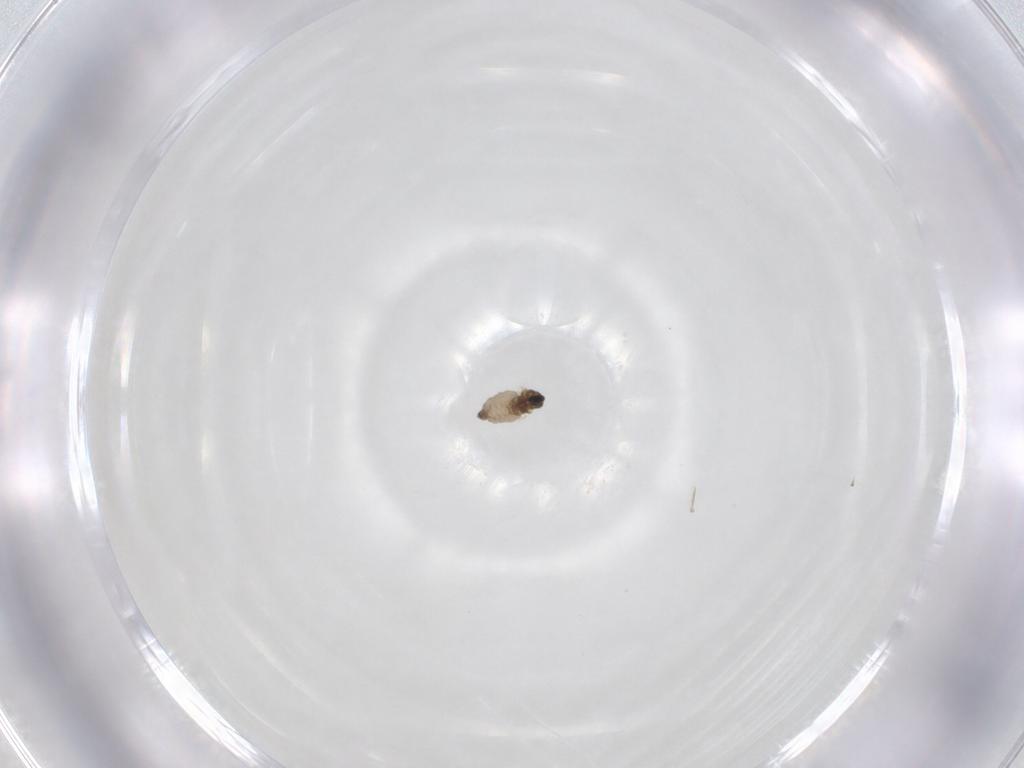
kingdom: Animalia
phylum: Arthropoda
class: Insecta
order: Diptera
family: Cecidomyiidae
